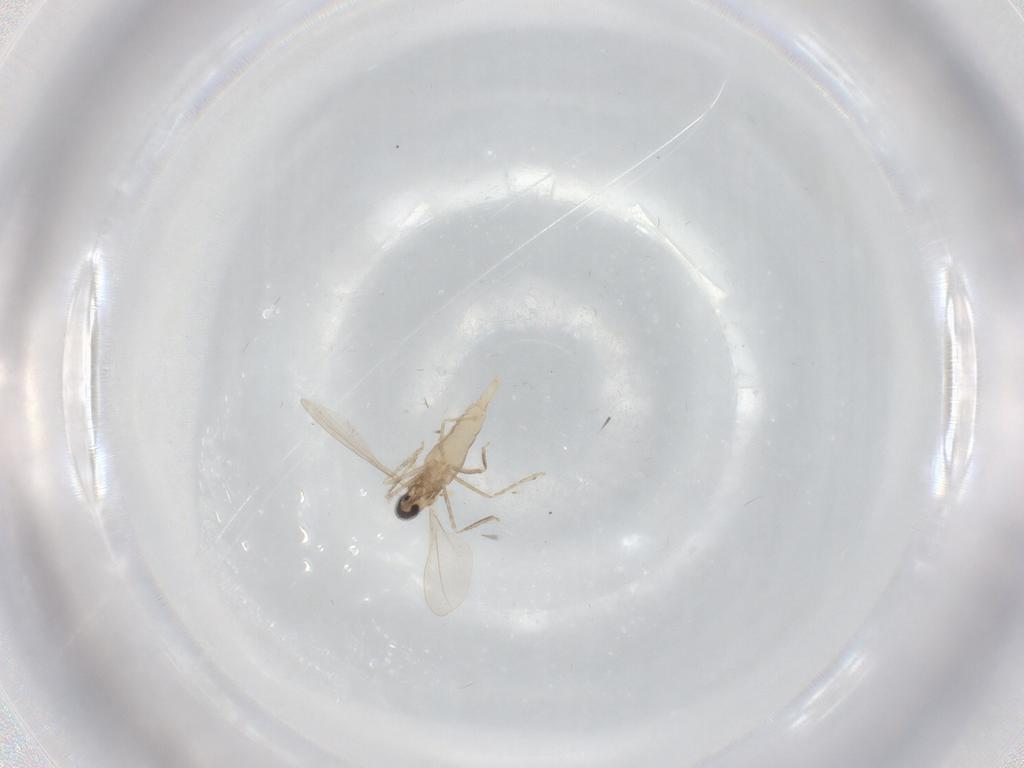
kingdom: Animalia
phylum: Arthropoda
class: Insecta
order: Diptera
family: Cecidomyiidae
